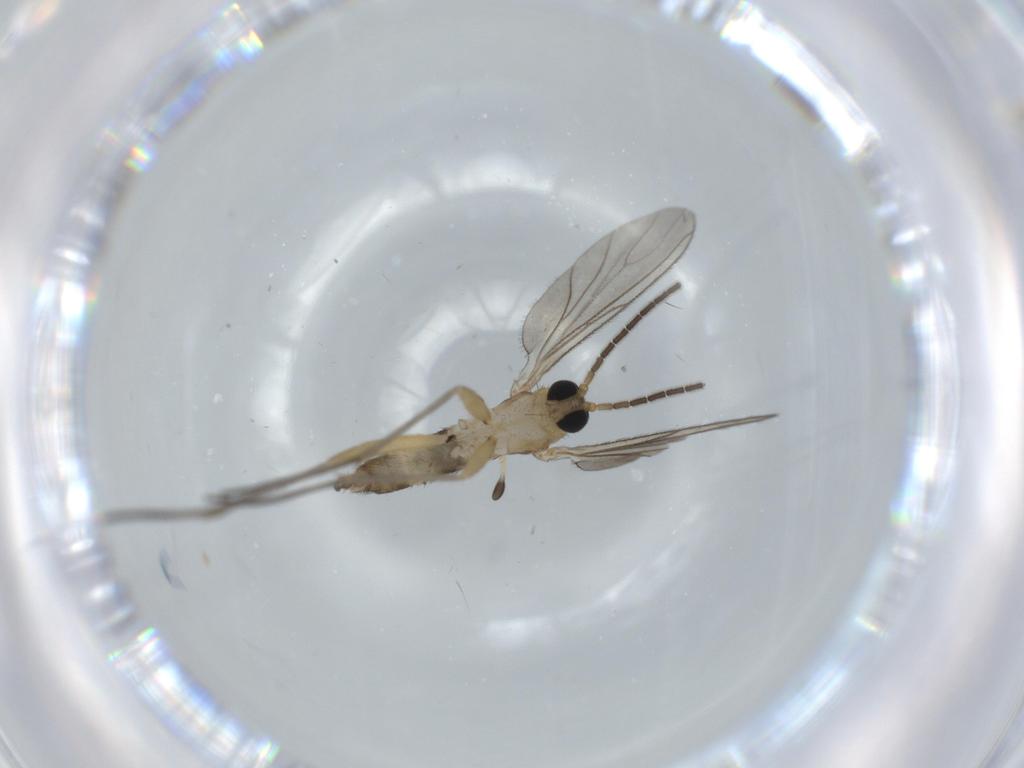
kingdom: Animalia
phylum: Arthropoda
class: Insecta
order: Diptera
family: Sciaridae
